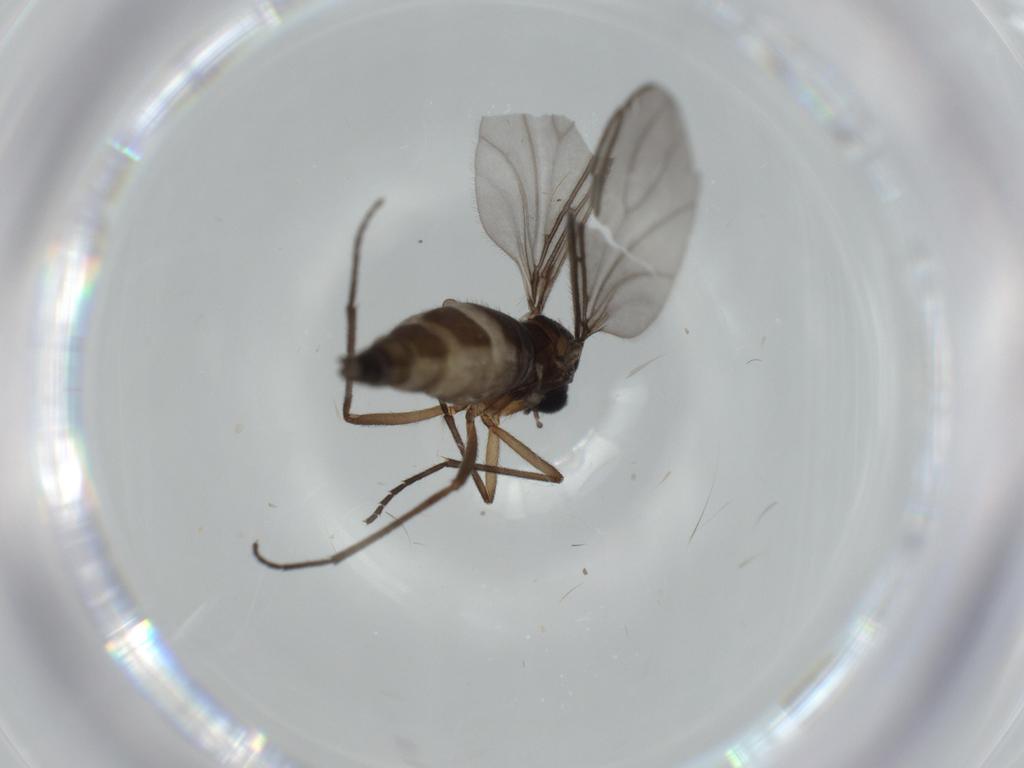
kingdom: Animalia
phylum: Arthropoda
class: Insecta
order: Diptera
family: Sciaridae
